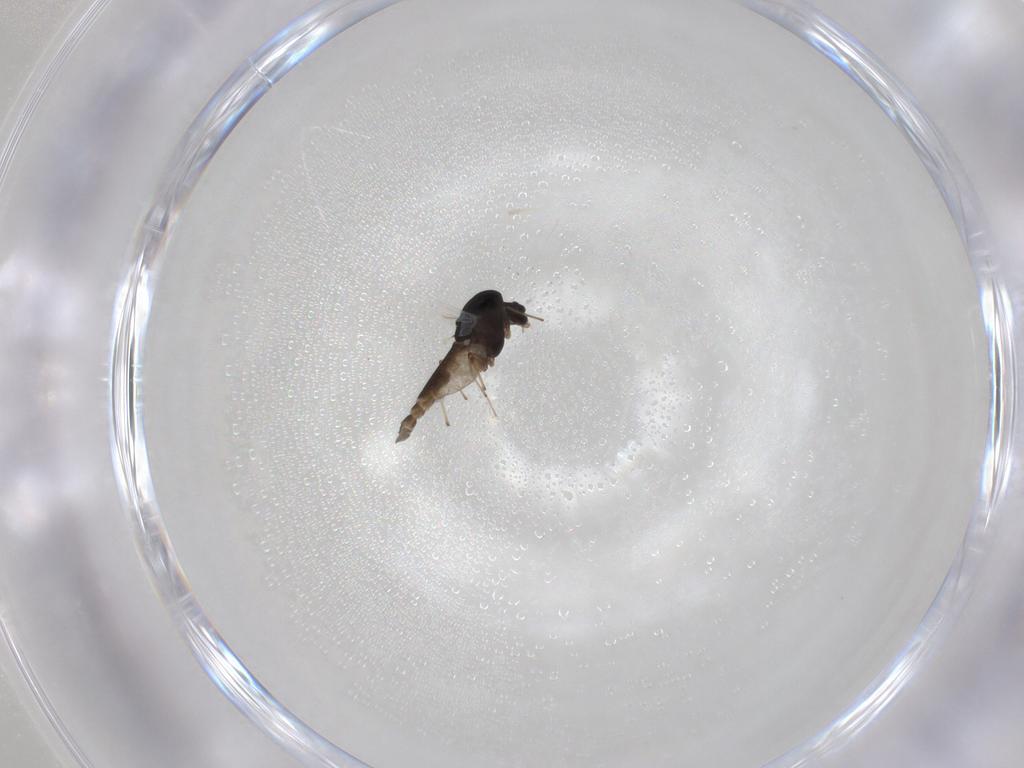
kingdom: Animalia
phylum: Arthropoda
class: Insecta
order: Diptera
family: Chironomidae
